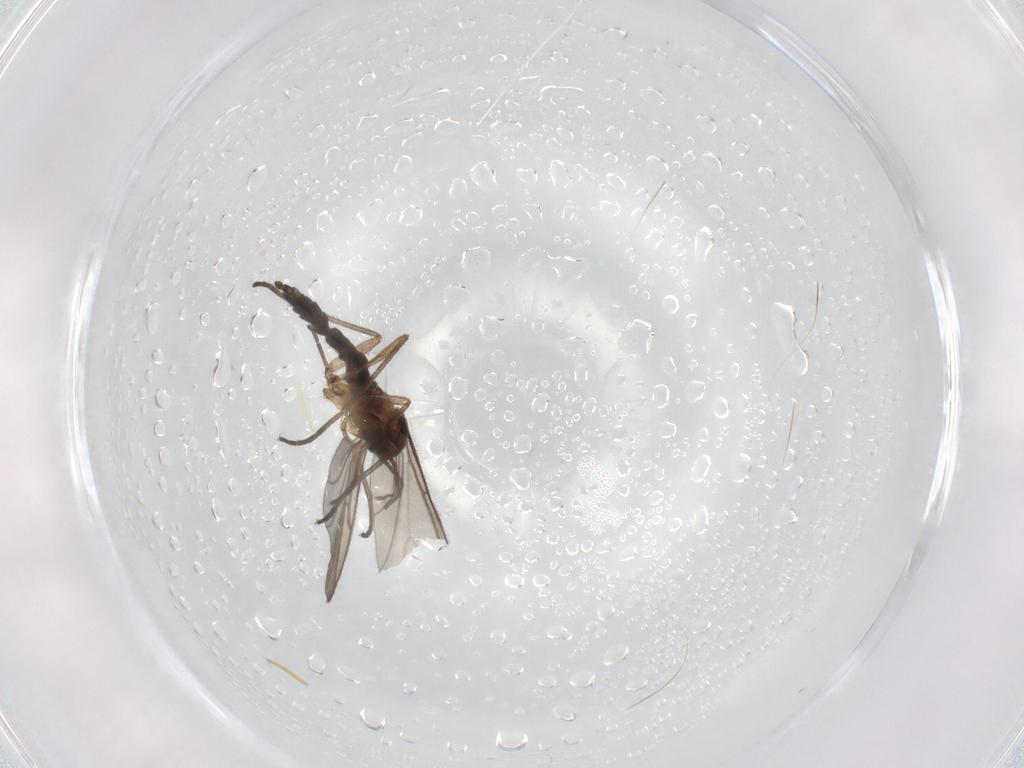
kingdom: Animalia
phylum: Arthropoda
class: Insecta
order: Diptera
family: Sciaridae
